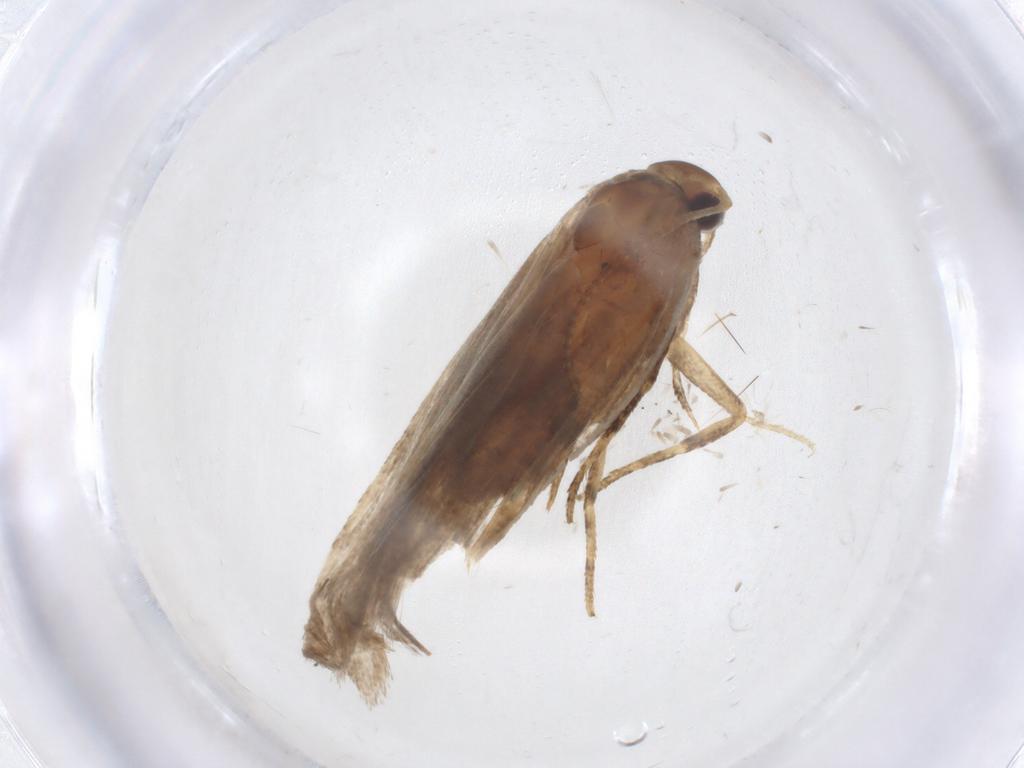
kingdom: Animalia
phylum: Arthropoda
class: Insecta
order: Lepidoptera
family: Gelechiidae
